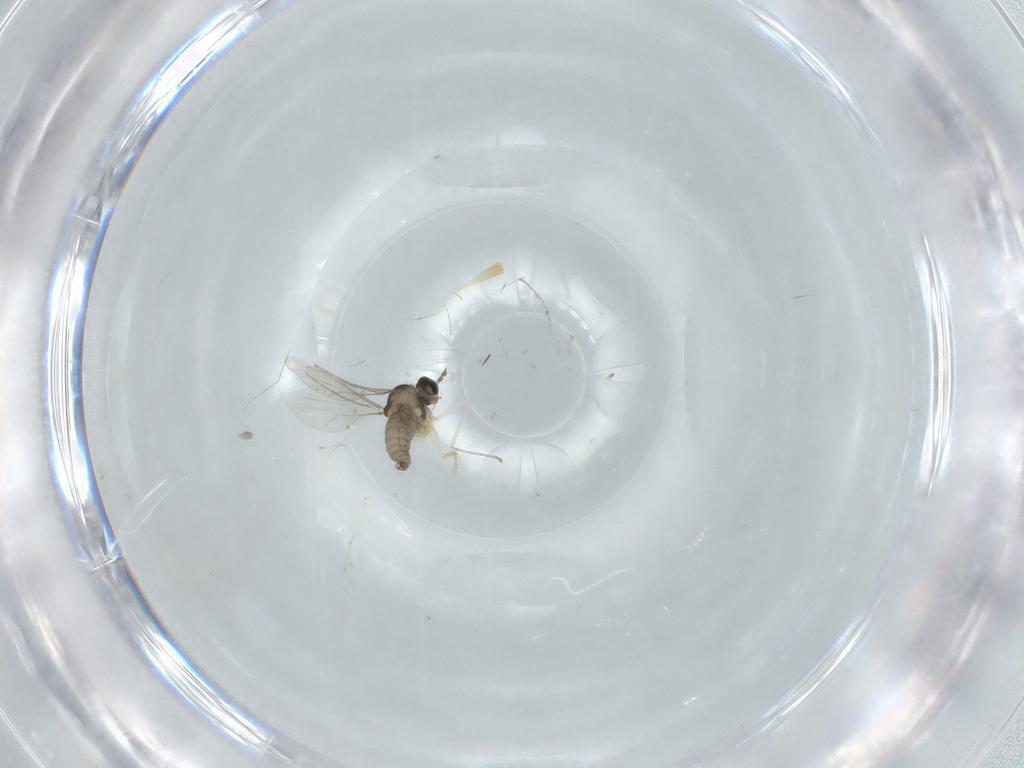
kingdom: Animalia
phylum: Arthropoda
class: Insecta
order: Diptera
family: Cecidomyiidae
